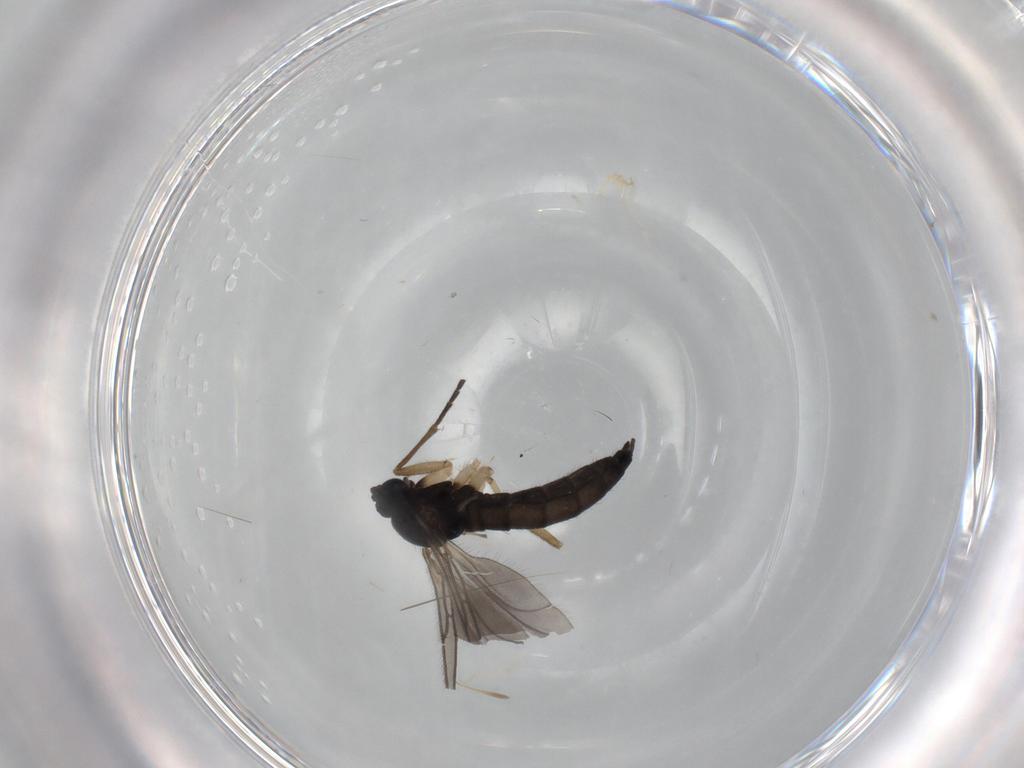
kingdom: Animalia
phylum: Arthropoda
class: Insecta
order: Diptera
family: Sciaridae
